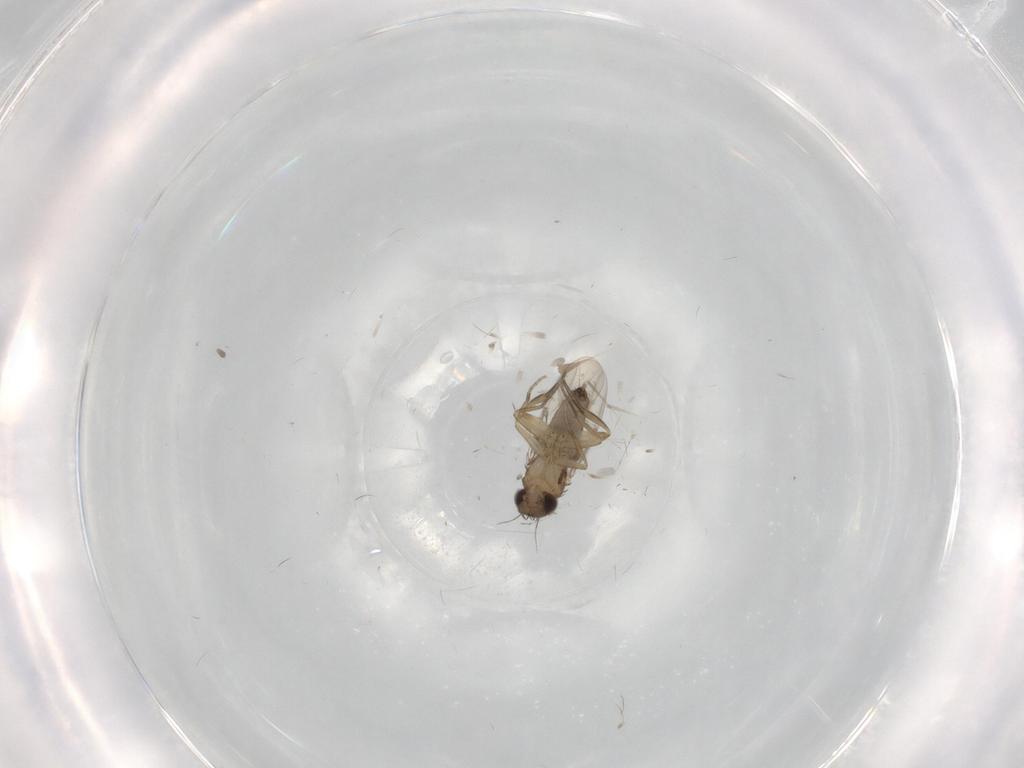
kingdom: Animalia
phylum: Arthropoda
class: Insecta
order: Diptera
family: Phoridae
